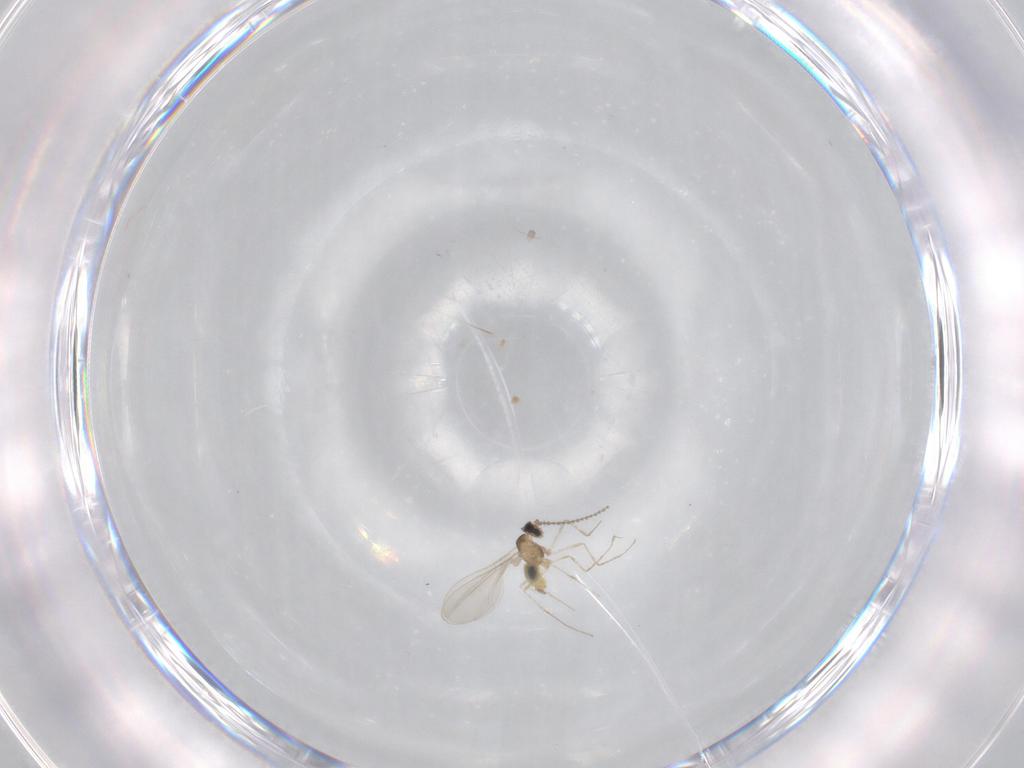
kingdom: Animalia
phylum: Arthropoda
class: Insecta
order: Diptera
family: Cecidomyiidae
